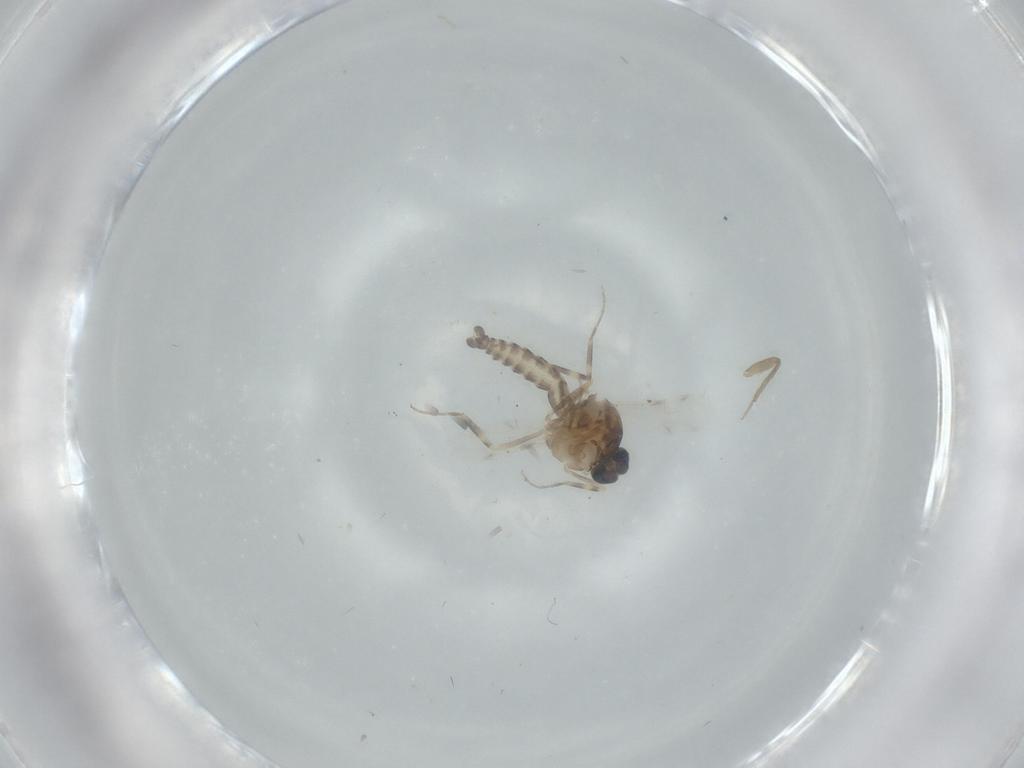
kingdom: Animalia
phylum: Arthropoda
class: Insecta
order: Diptera
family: Ceratopogonidae
